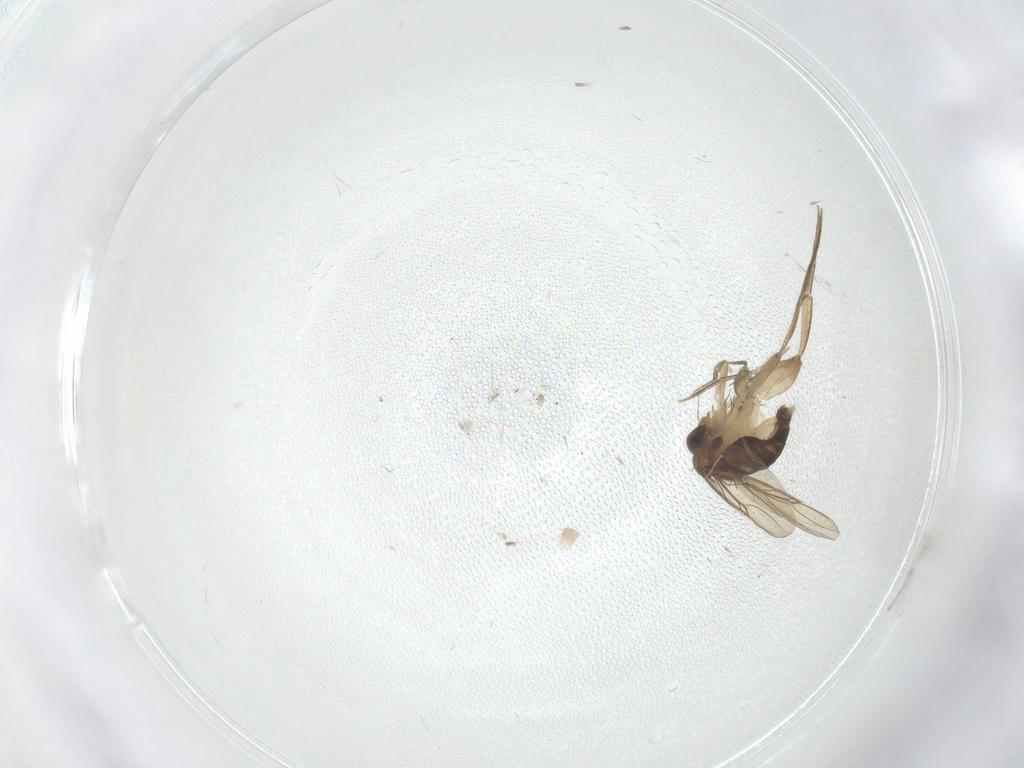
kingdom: Animalia
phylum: Arthropoda
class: Insecta
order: Diptera
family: Phoridae
